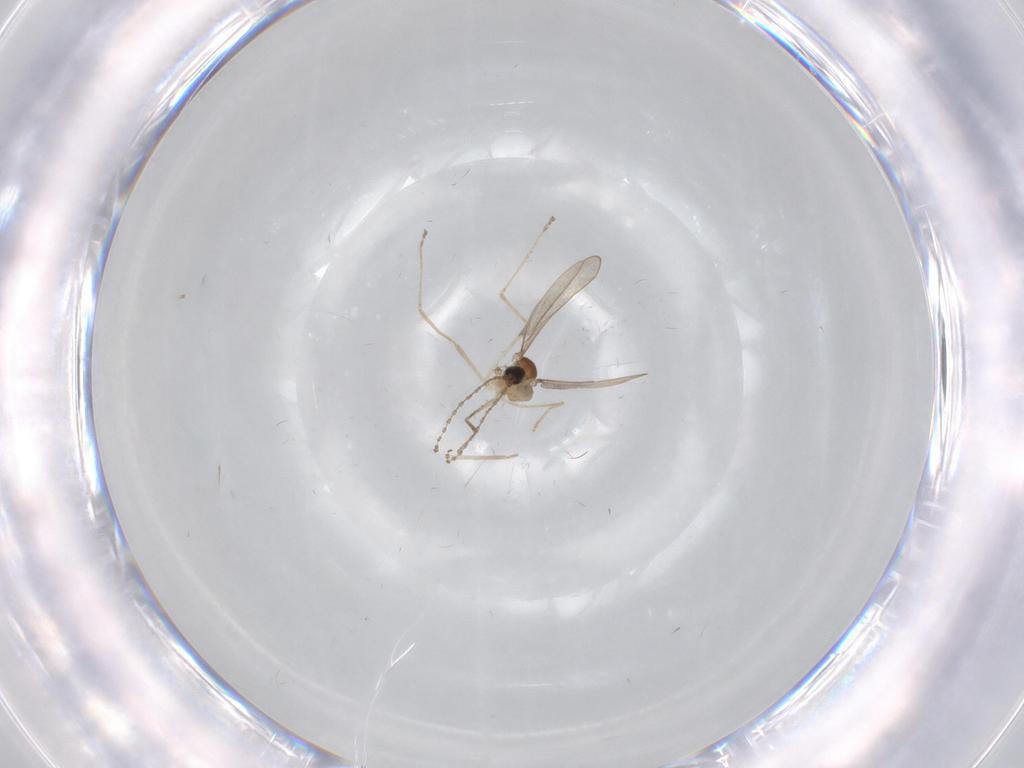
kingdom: Animalia
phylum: Arthropoda
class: Insecta
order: Diptera
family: Cecidomyiidae
